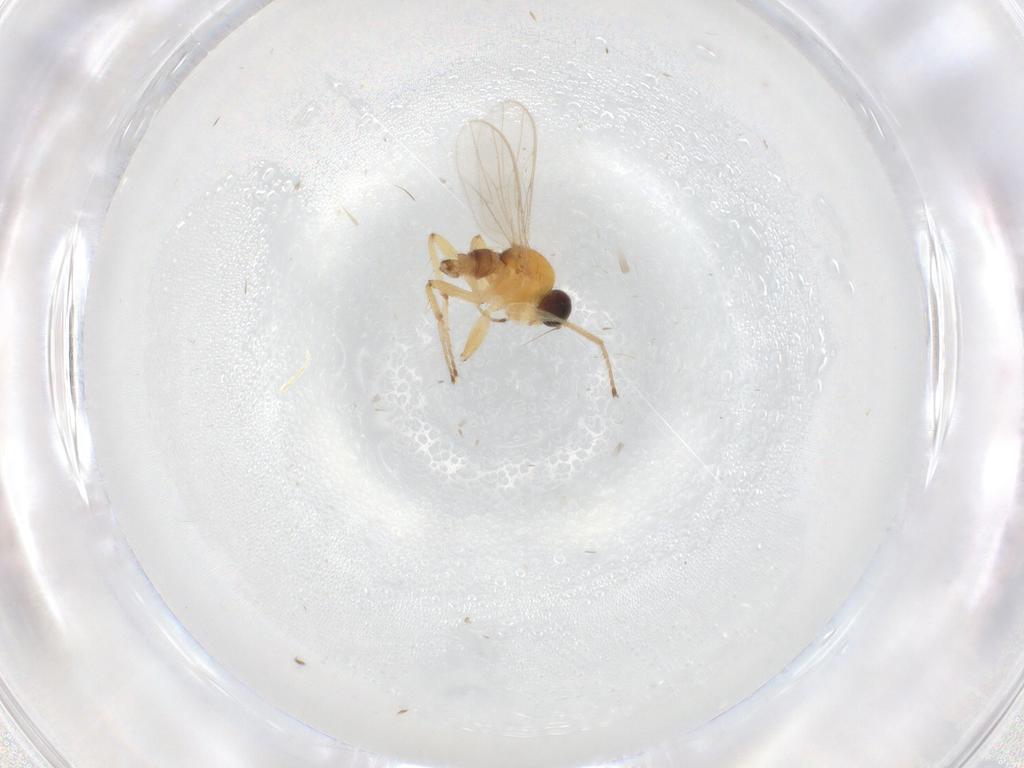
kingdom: Animalia
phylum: Arthropoda
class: Insecta
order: Diptera
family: Hybotidae
